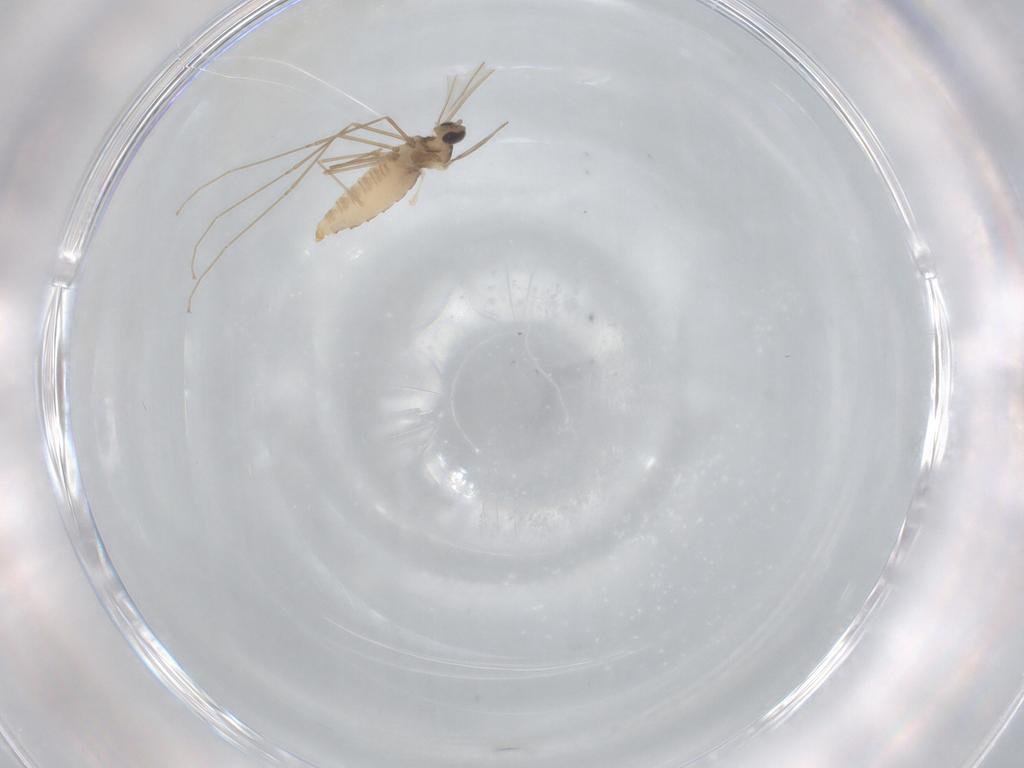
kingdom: Animalia
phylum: Arthropoda
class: Insecta
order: Diptera
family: Cecidomyiidae
